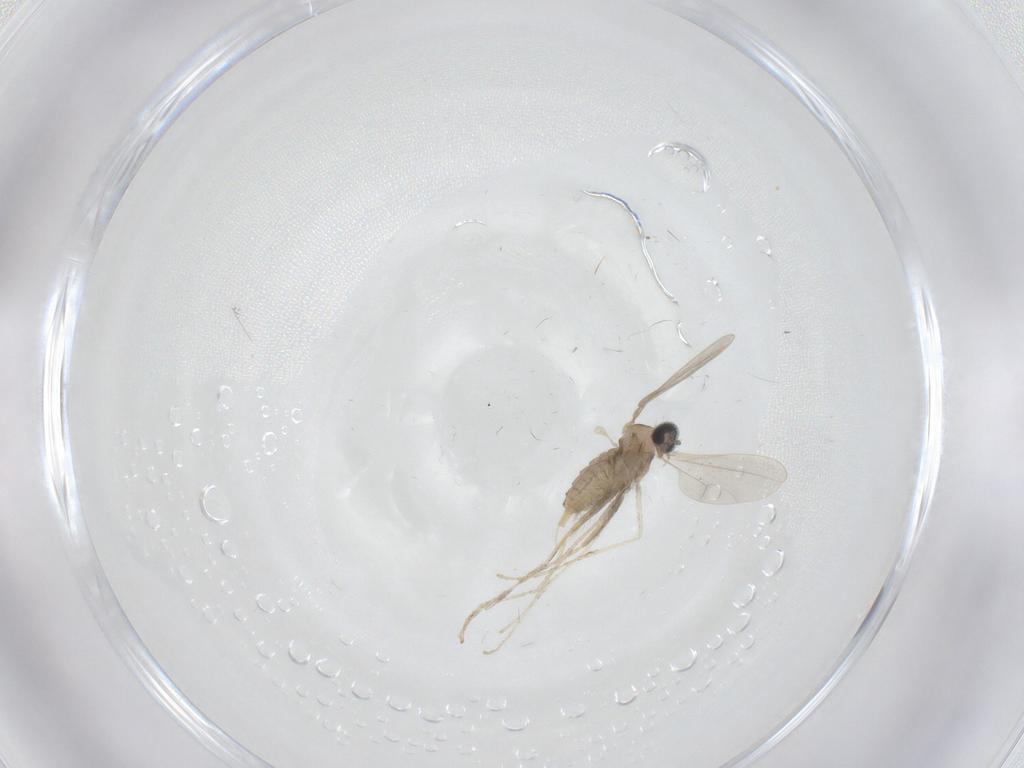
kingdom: Animalia
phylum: Arthropoda
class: Insecta
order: Diptera
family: Cecidomyiidae
